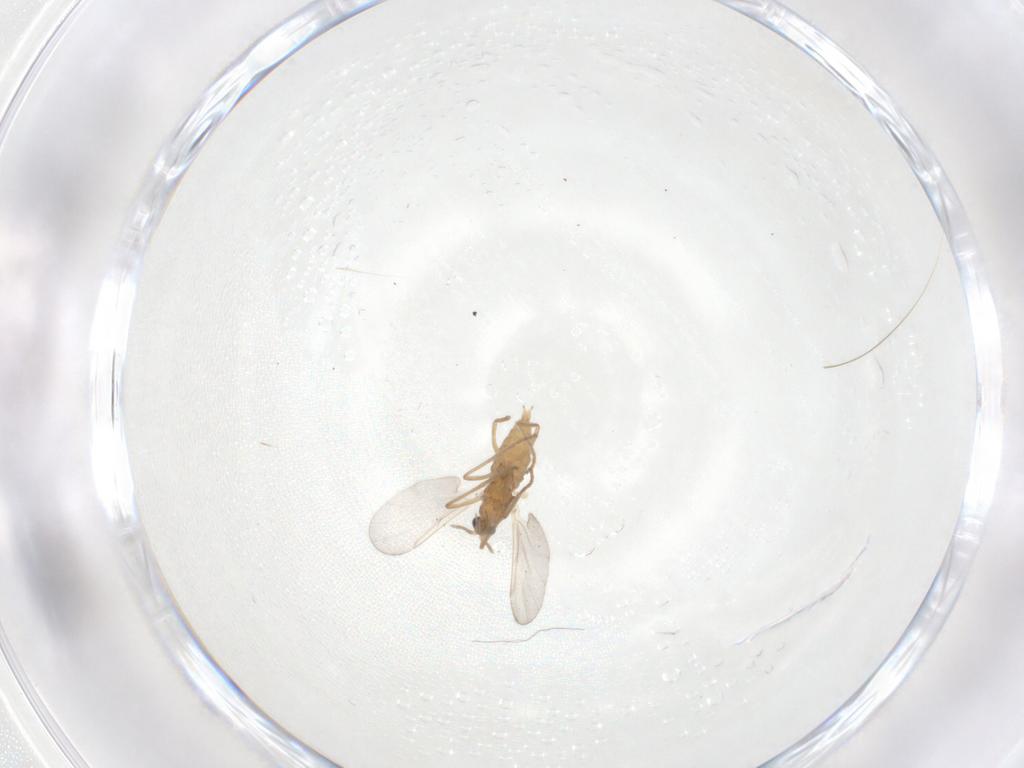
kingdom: Animalia
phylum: Arthropoda
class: Insecta
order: Diptera
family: Cecidomyiidae
